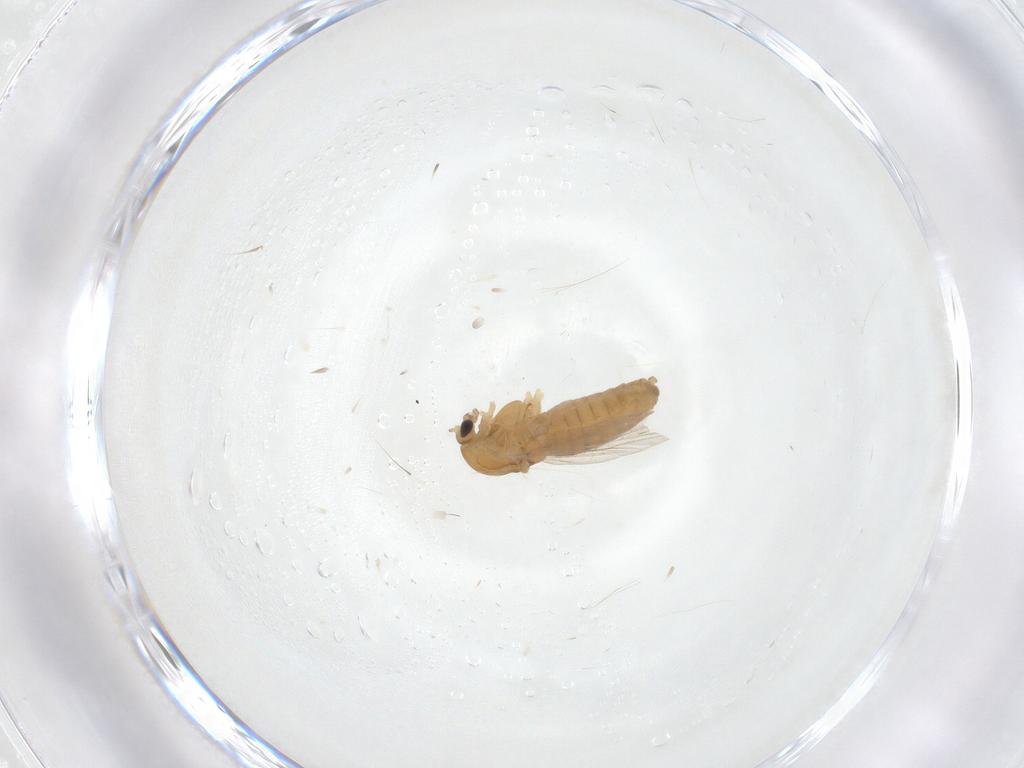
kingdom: Animalia
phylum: Arthropoda
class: Insecta
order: Diptera
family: Chironomidae
